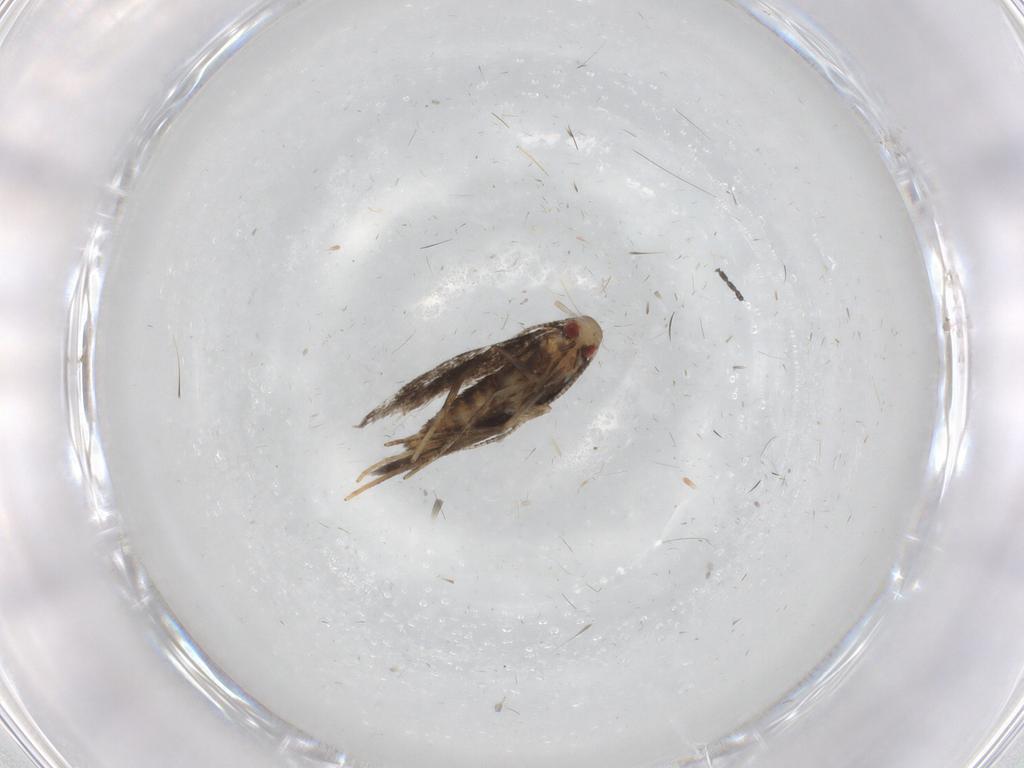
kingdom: Animalia
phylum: Arthropoda
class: Insecta
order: Lepidoptera
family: Gracillariidae
